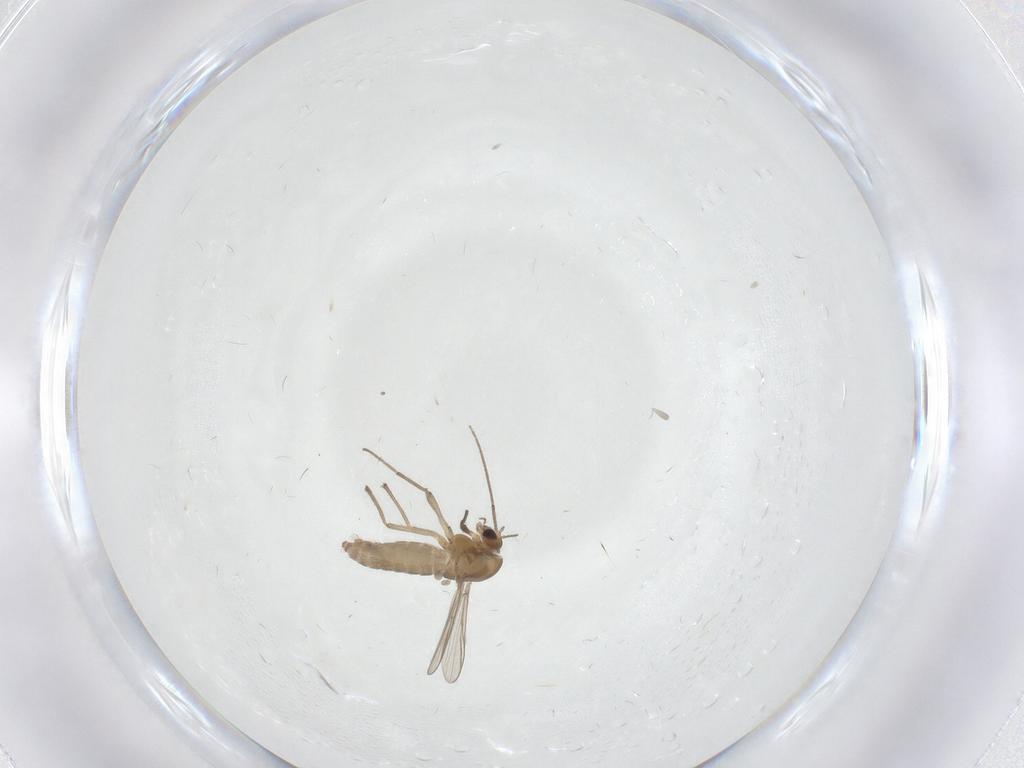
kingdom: Animalia
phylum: Arthropoda
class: Insecta
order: Diptera
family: Chironomidae
